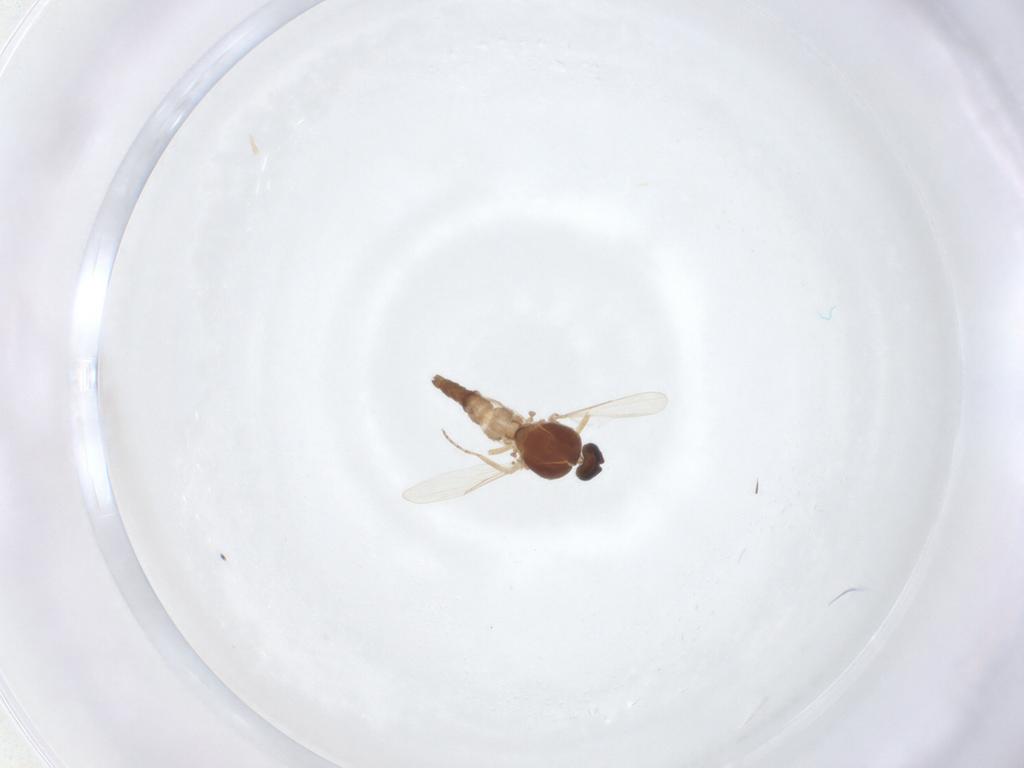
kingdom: Animalia
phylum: Arthropoda
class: Insecta
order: Diptera
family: Ceratopogonidae
